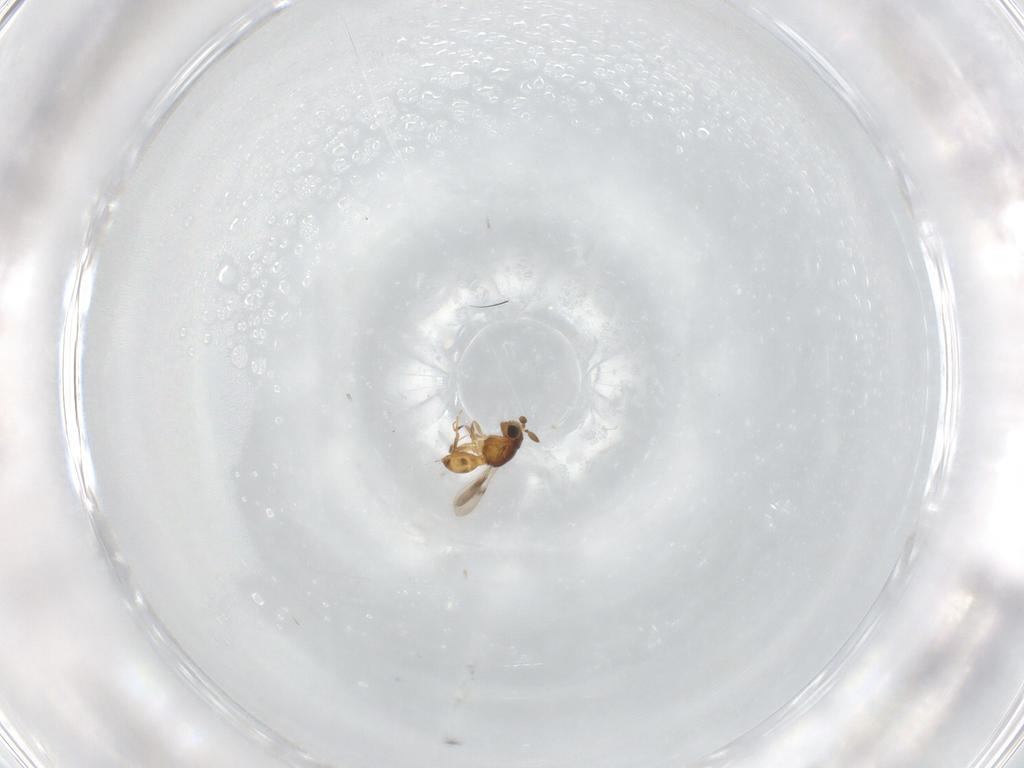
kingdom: Animalia
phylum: Arthropoda
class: Insecta
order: Hymenoptera
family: Scelionidae
